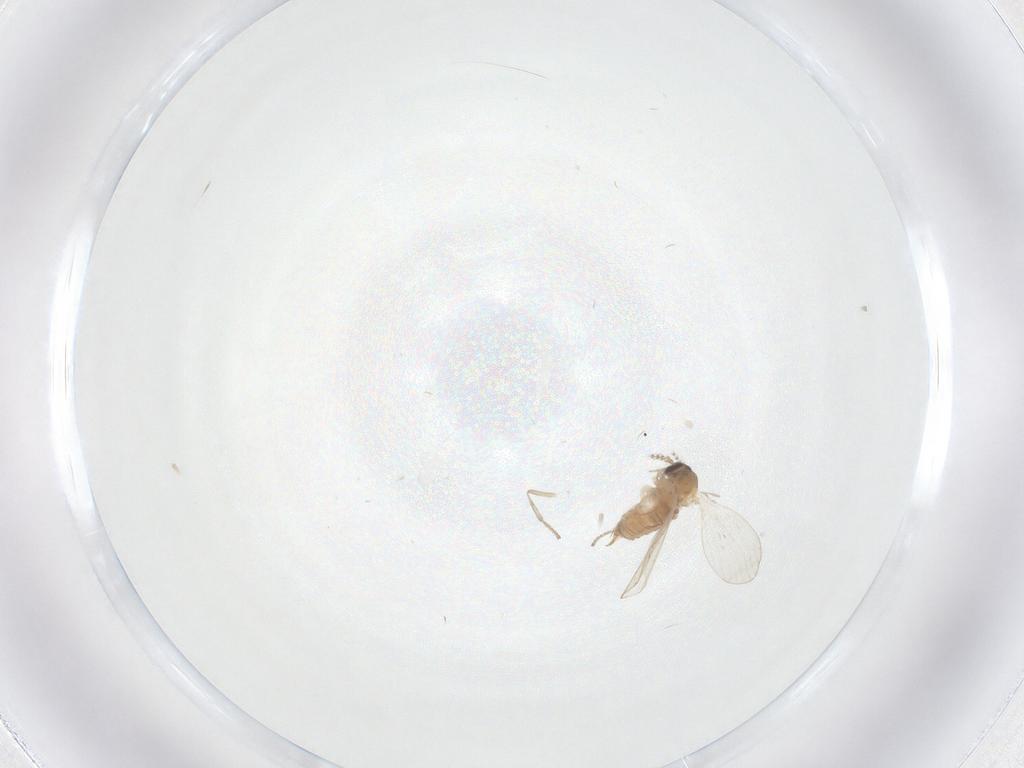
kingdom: Animalia
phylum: Arthropoda
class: Insecta
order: Diptera
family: Psychodidae
